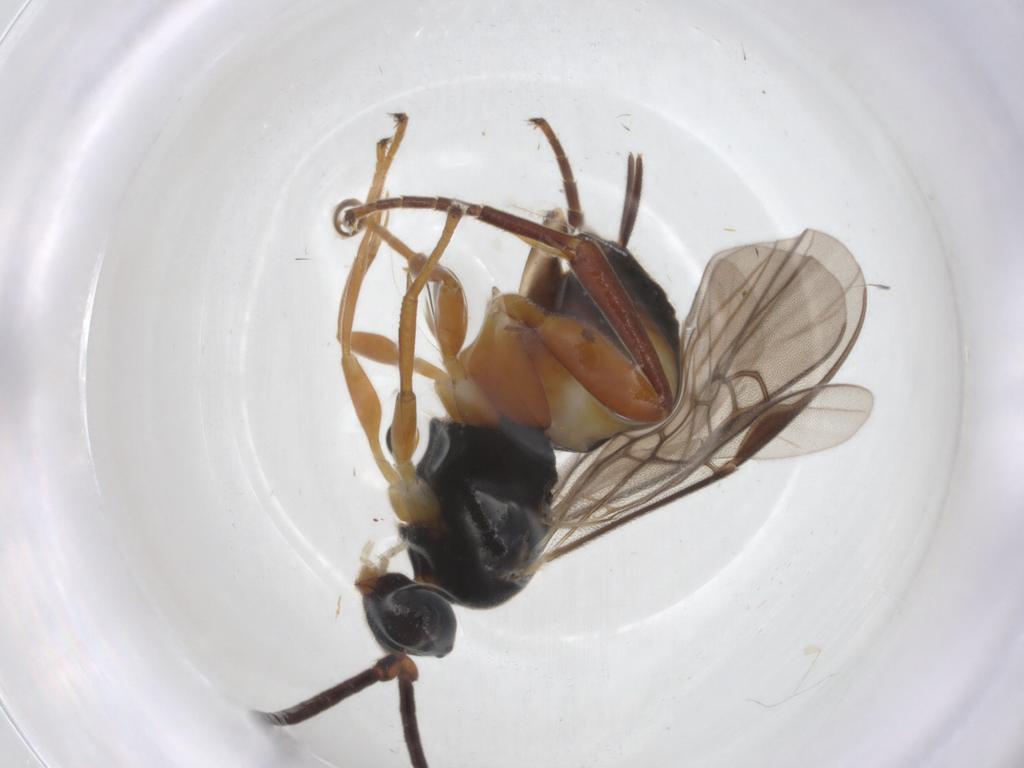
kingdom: Animalia
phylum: Arthropoda
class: Insecta
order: Hymenoptera
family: Braconidae
